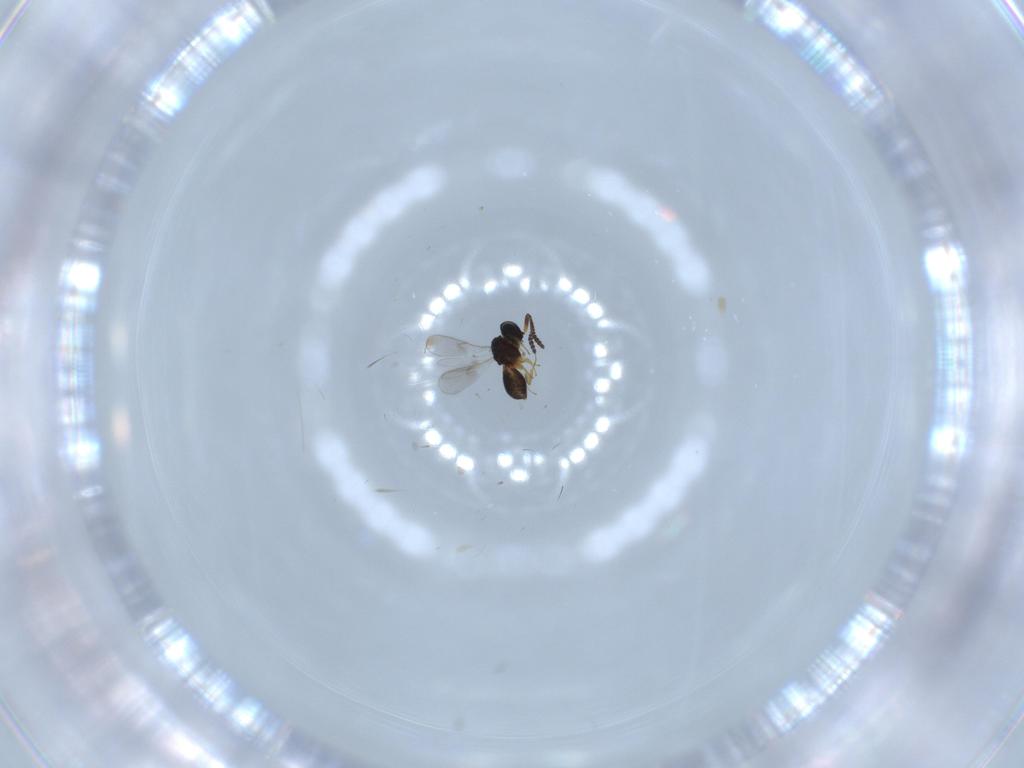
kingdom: Animalia
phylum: Arthropoda
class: Insecta
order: Hymenoptera
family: Scelionidae
